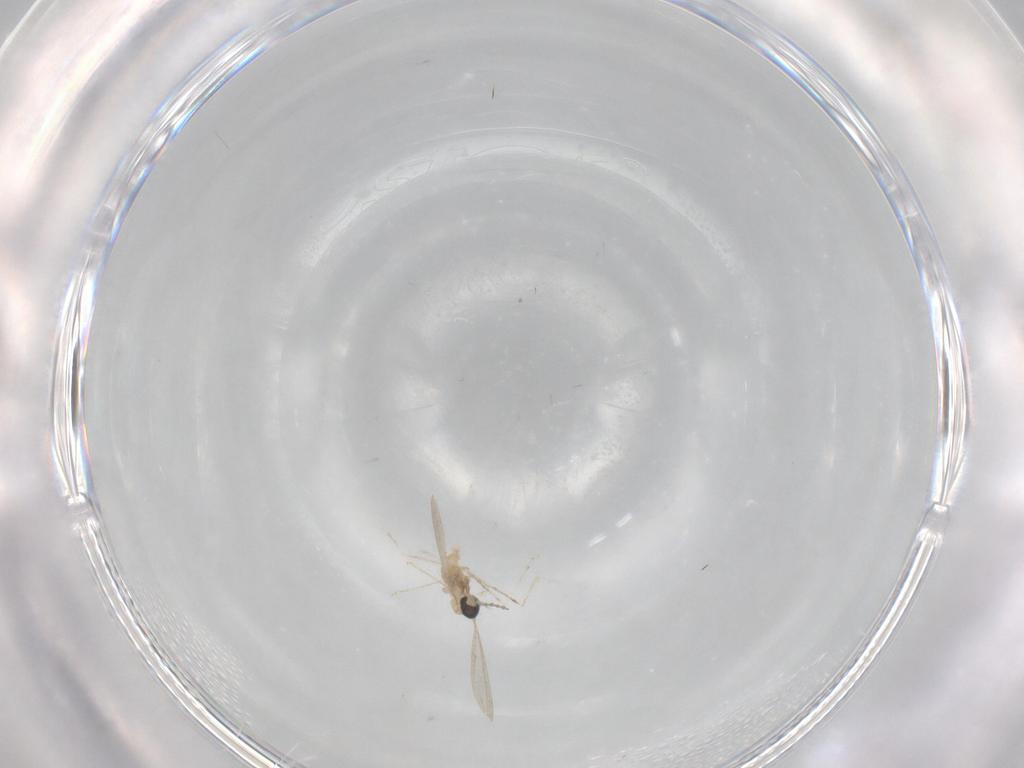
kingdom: Animalia
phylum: Arthropoda
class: Insecta
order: Diptera
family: Cecidomyiidae
